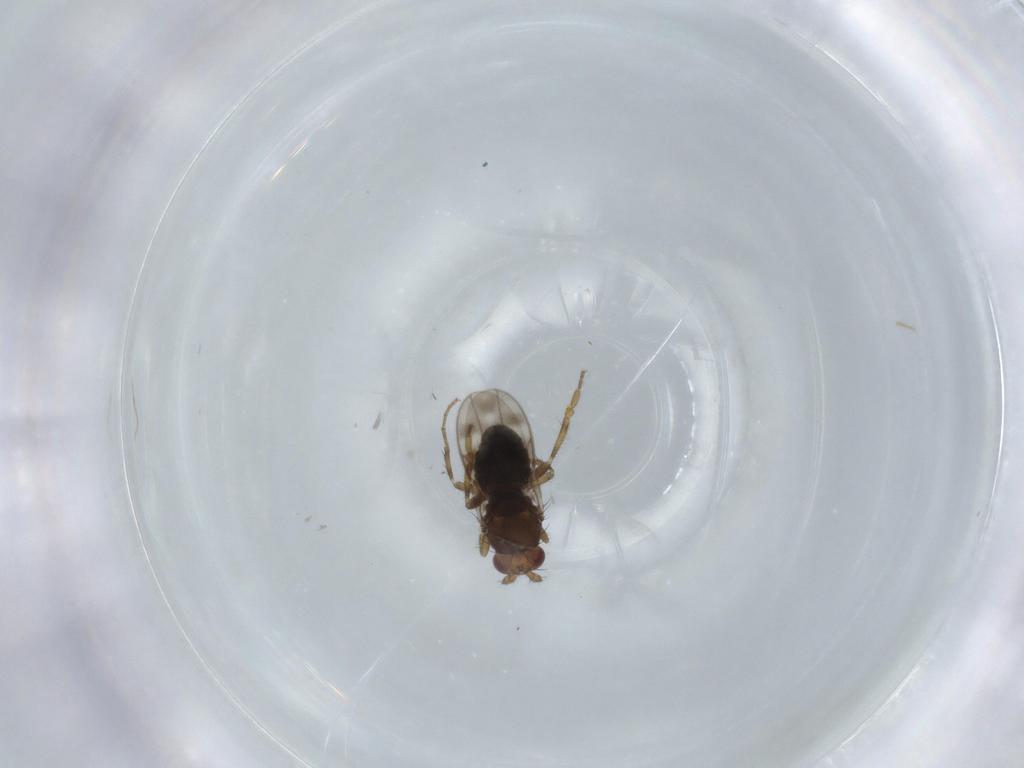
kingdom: Animalia
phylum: Arthropoda
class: Insecta
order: Diptera
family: Sphaeroceridae
